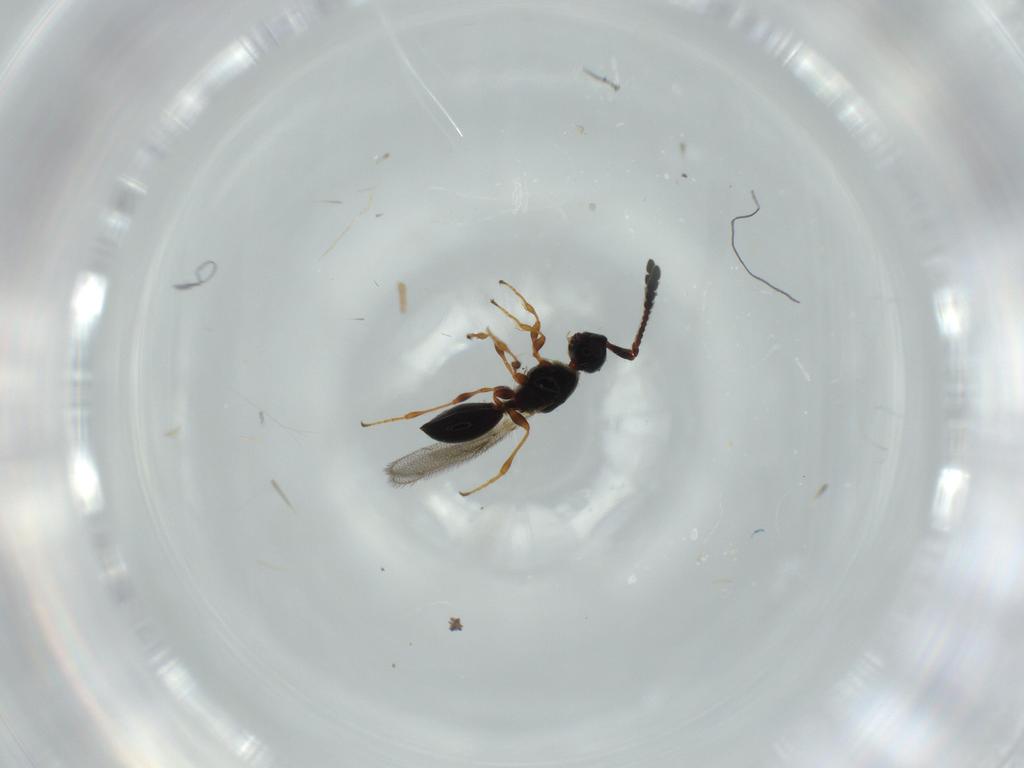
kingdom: Animalia
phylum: Arthropoda
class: Insecta
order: Hymenoptera
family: Diapriidae
